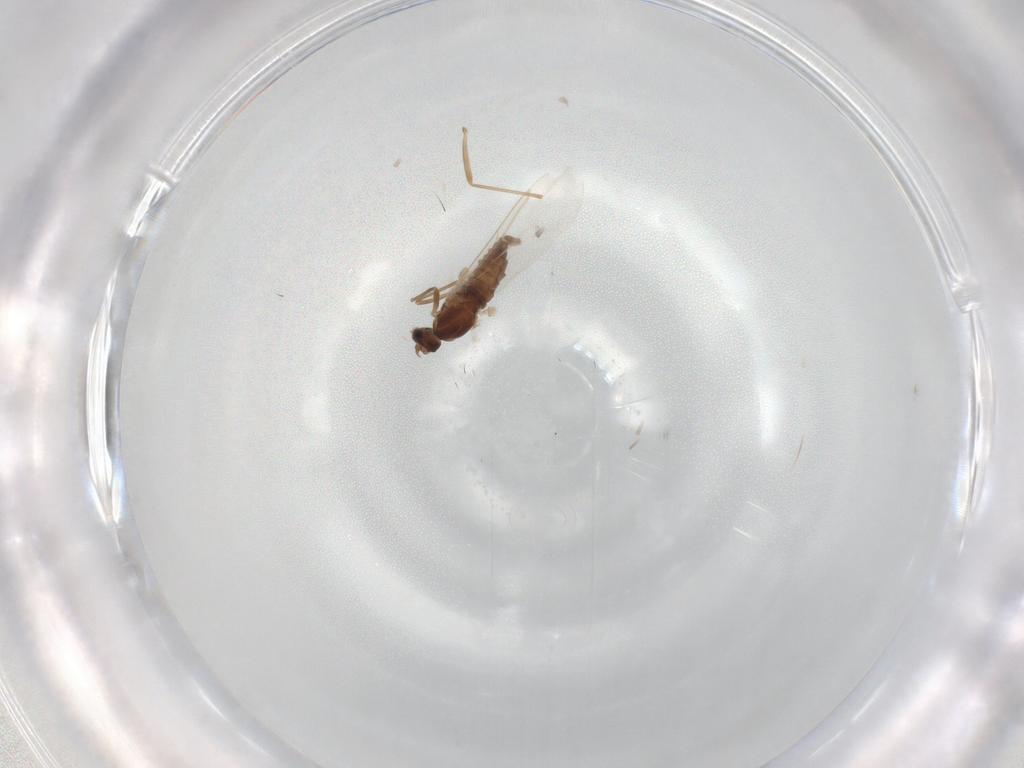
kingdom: Animalia
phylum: Arthropoda
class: Insecta
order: Diptera
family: Cecidomyiidae
